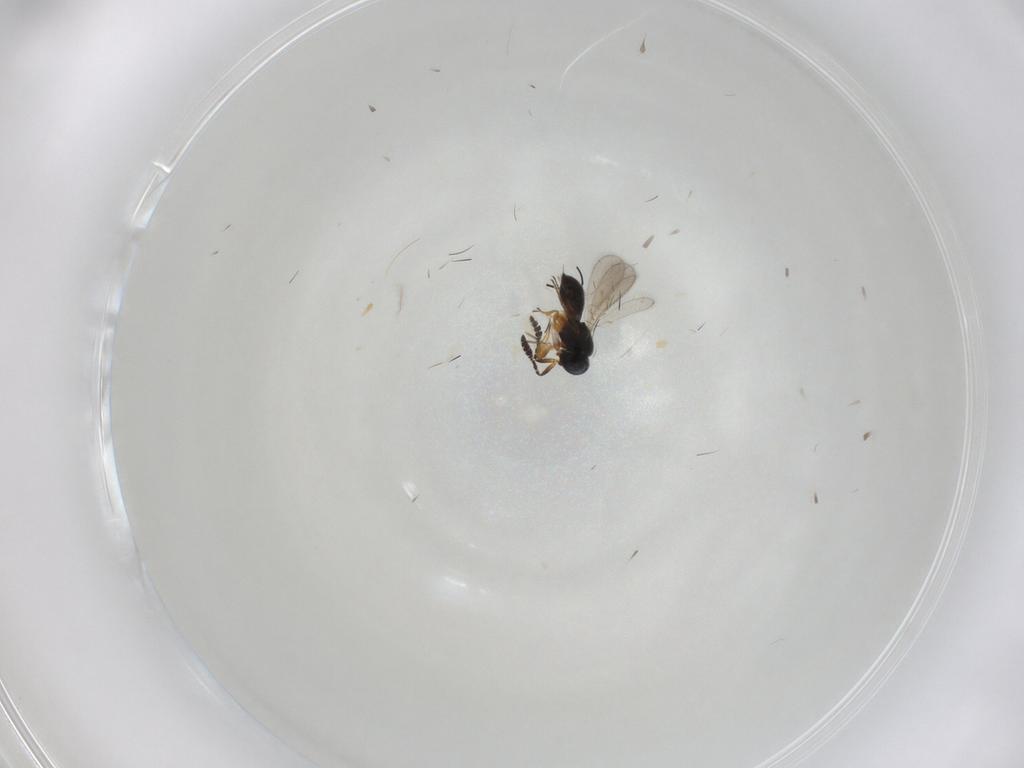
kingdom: Animalia
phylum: Arthropoda
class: Insecta
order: Hymenoptera
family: Scelionidae
